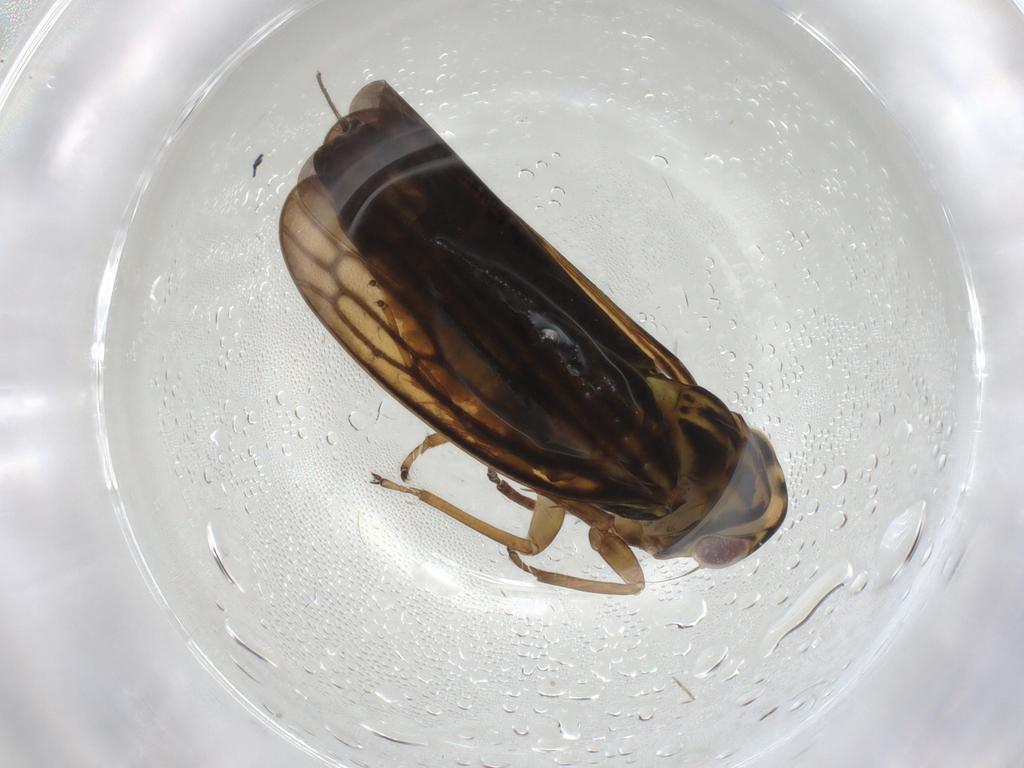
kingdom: Animalia
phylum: Arthropoda
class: Insecta
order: Hemiptera
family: Cicadellidae
